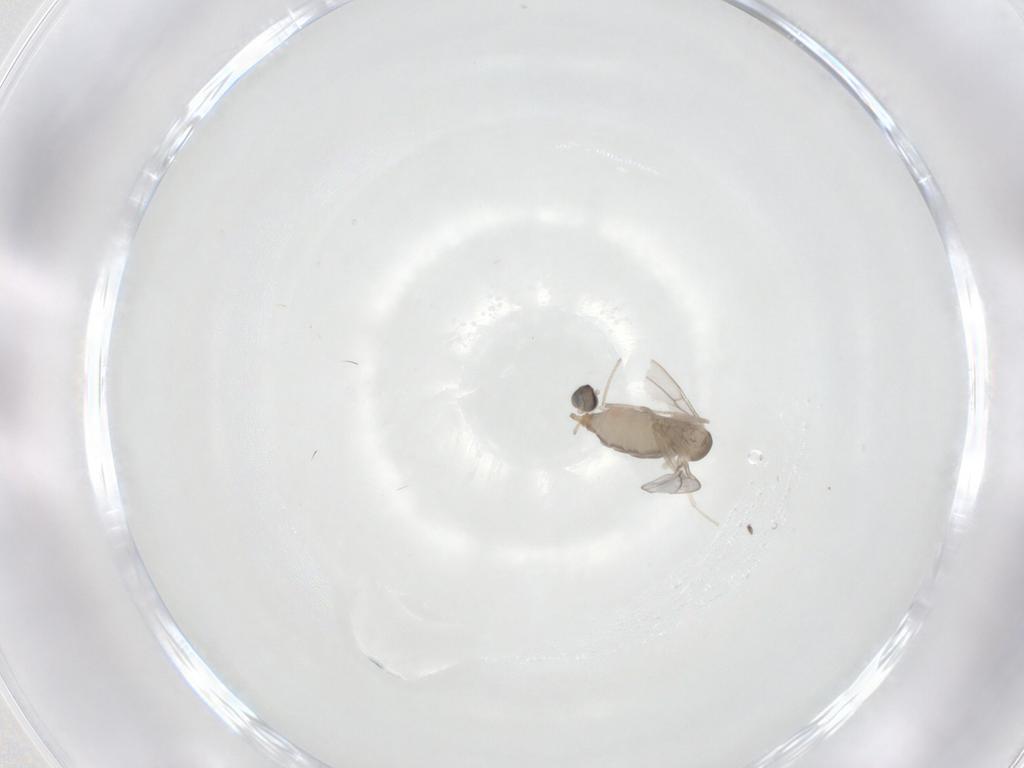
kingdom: Animalia
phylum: Arthropoda
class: Insecta
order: Diptera
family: Cecidomyiidae
